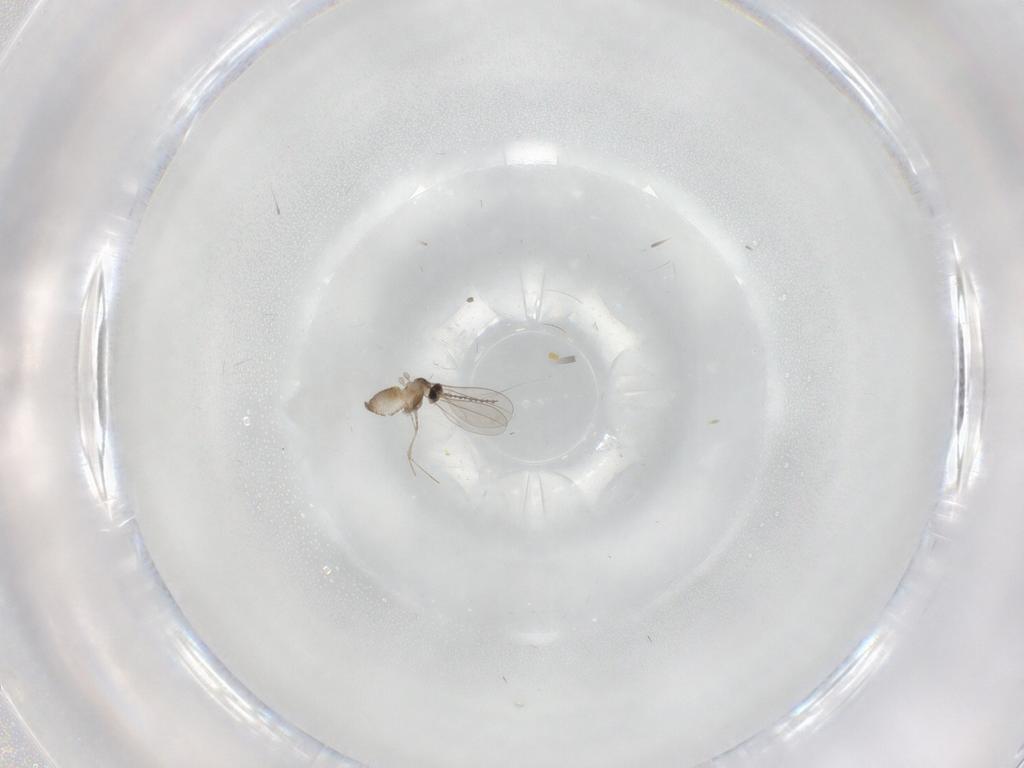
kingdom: Animalia
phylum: Arthropoda
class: Insecta
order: Diptera
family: Cecidomyiidae
